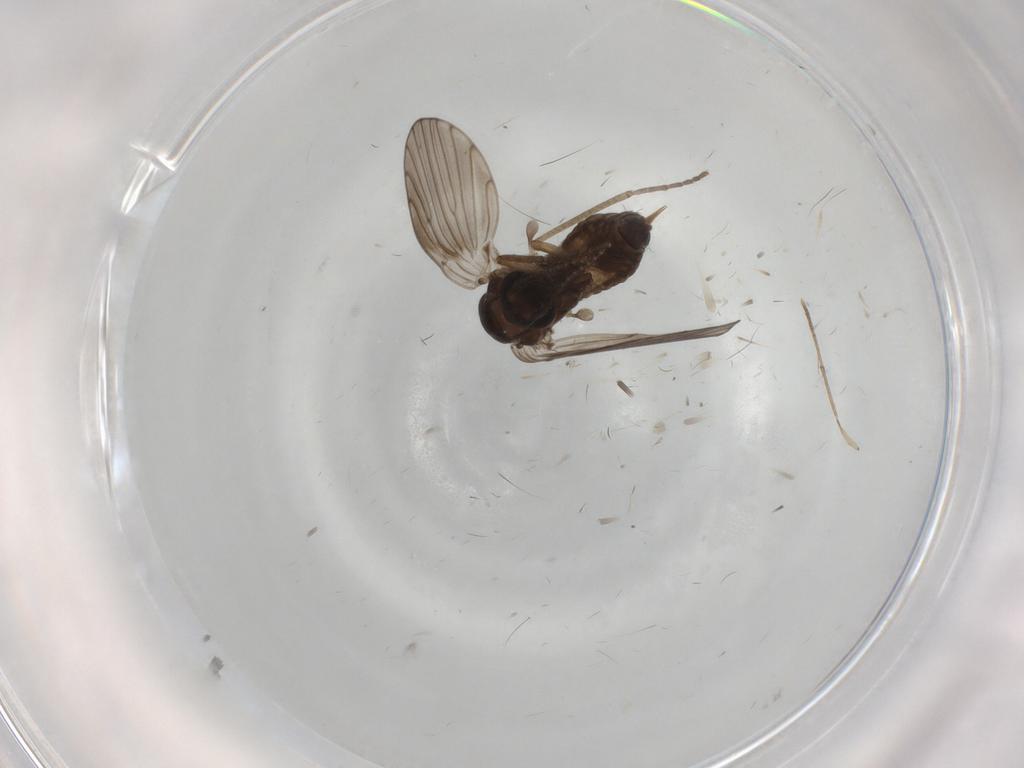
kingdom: Animalia
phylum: Arthropoda
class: Insecta
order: Diptera
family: Psychodidae
